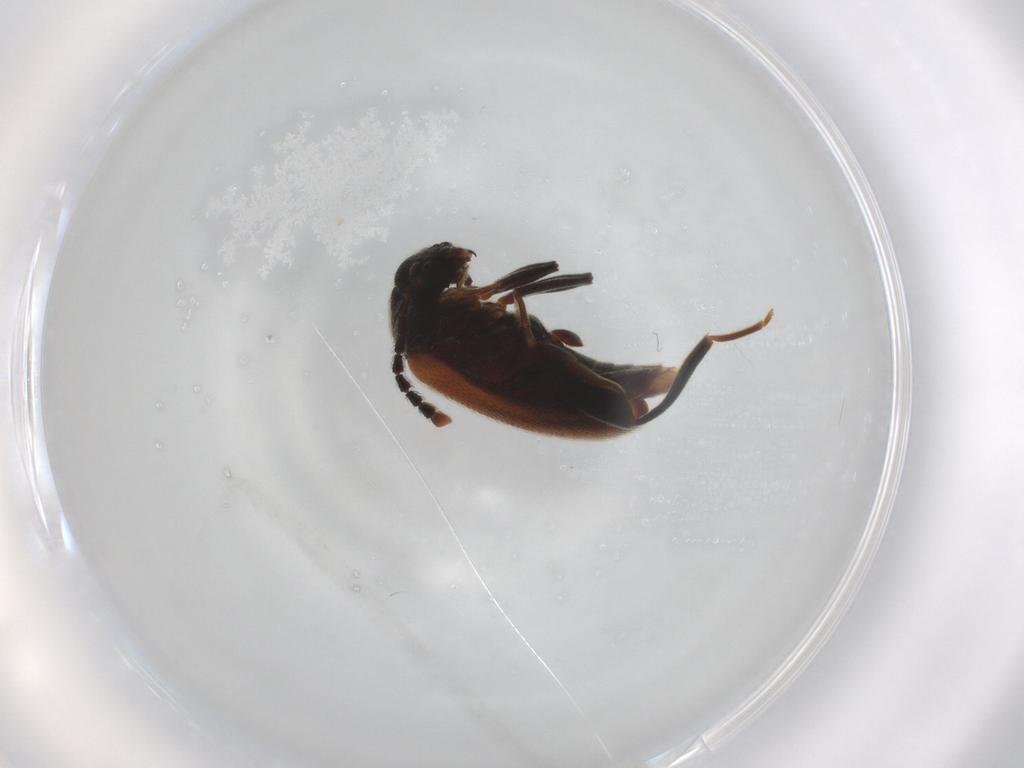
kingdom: Animalia
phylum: Arthropoda
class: Insecta
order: Coleoptera
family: Aderidae
